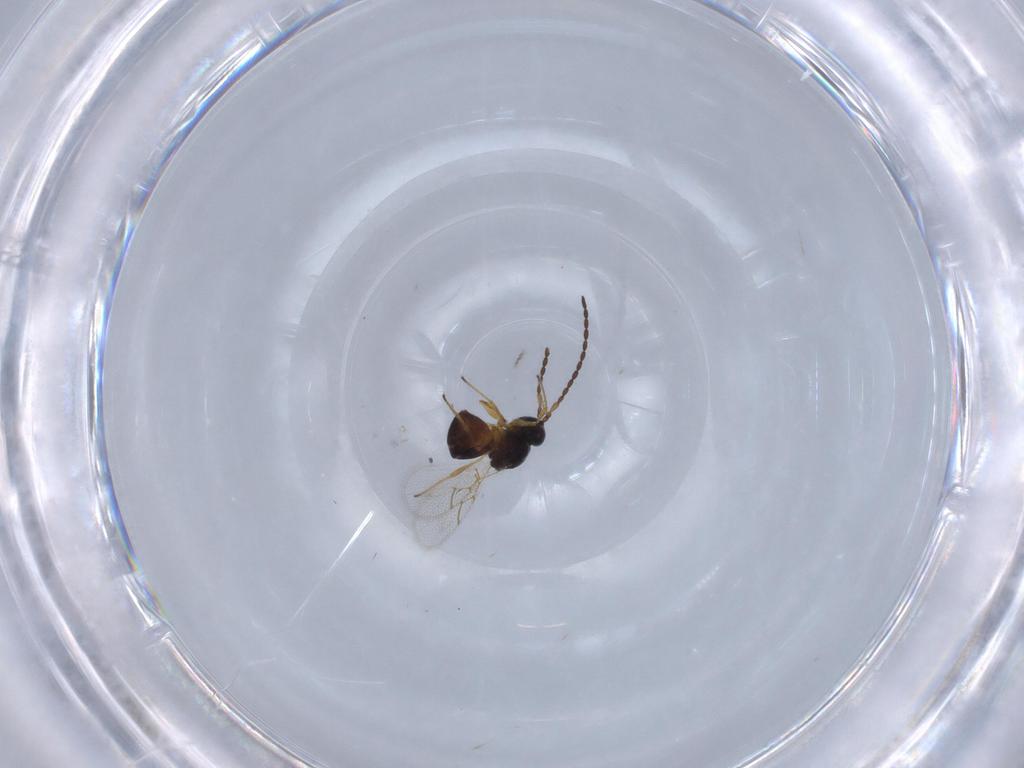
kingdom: Animalia
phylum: Arthropoda
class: Insecta
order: Hymenoptera
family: Cynipidae
